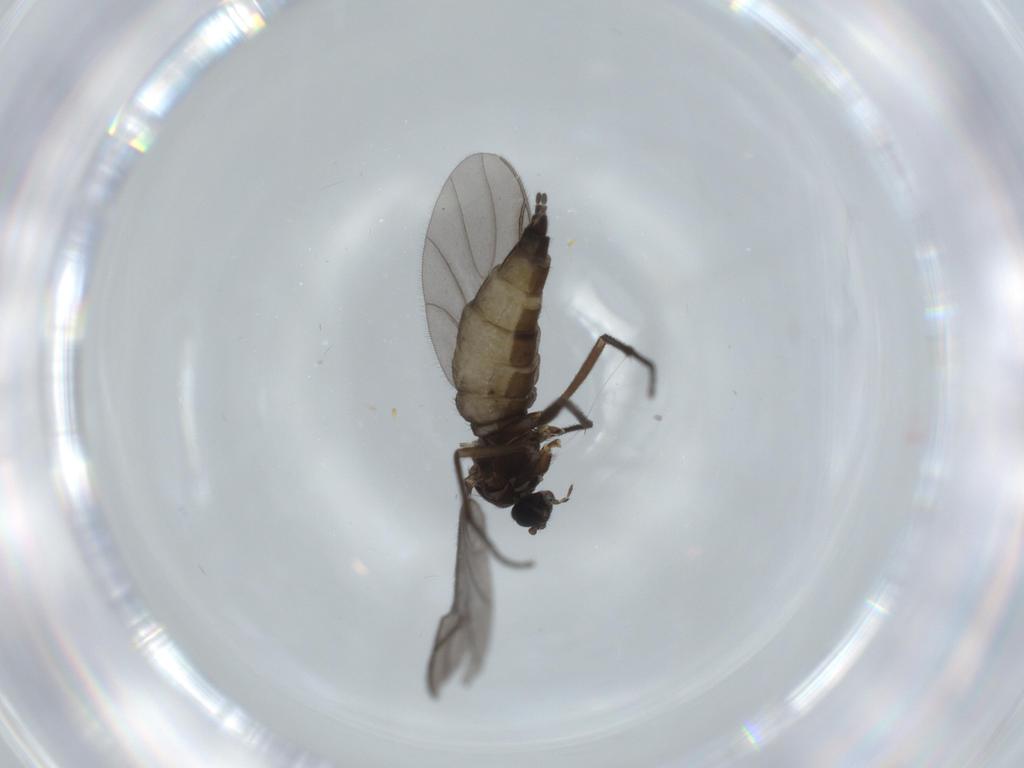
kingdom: Animalia
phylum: Arthropoda
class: Insecta
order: Diptera
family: Sciaridae
